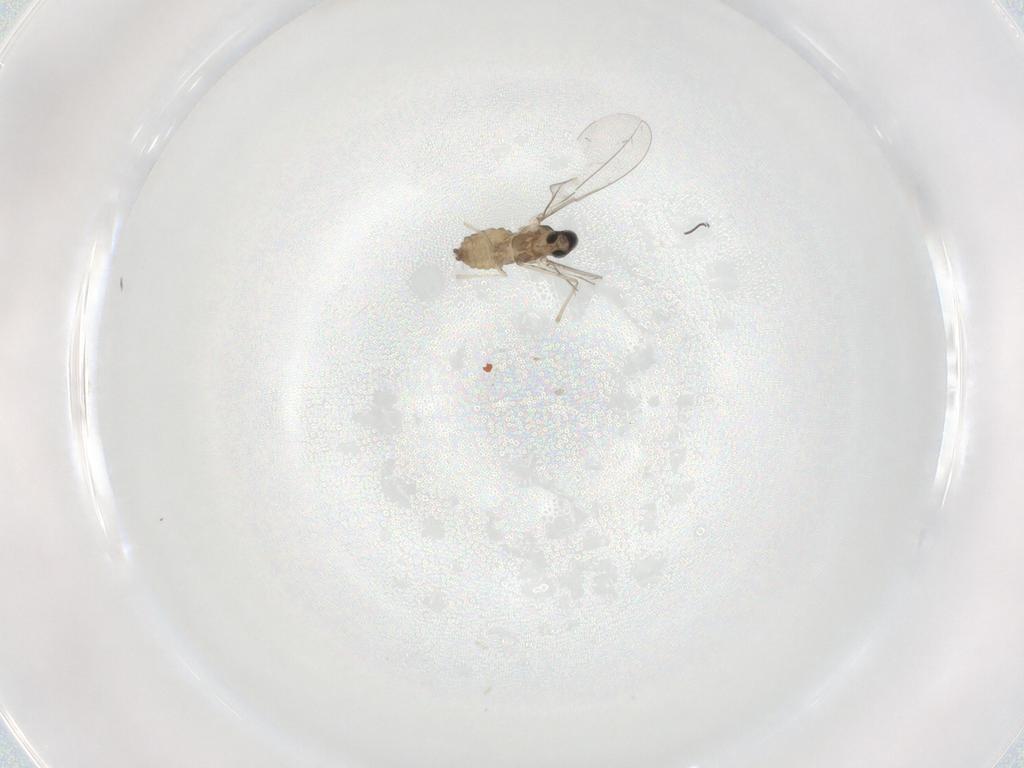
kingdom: Animalia
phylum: Arthropoda
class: Insecta
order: Diptera
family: Cecidomyiidae
